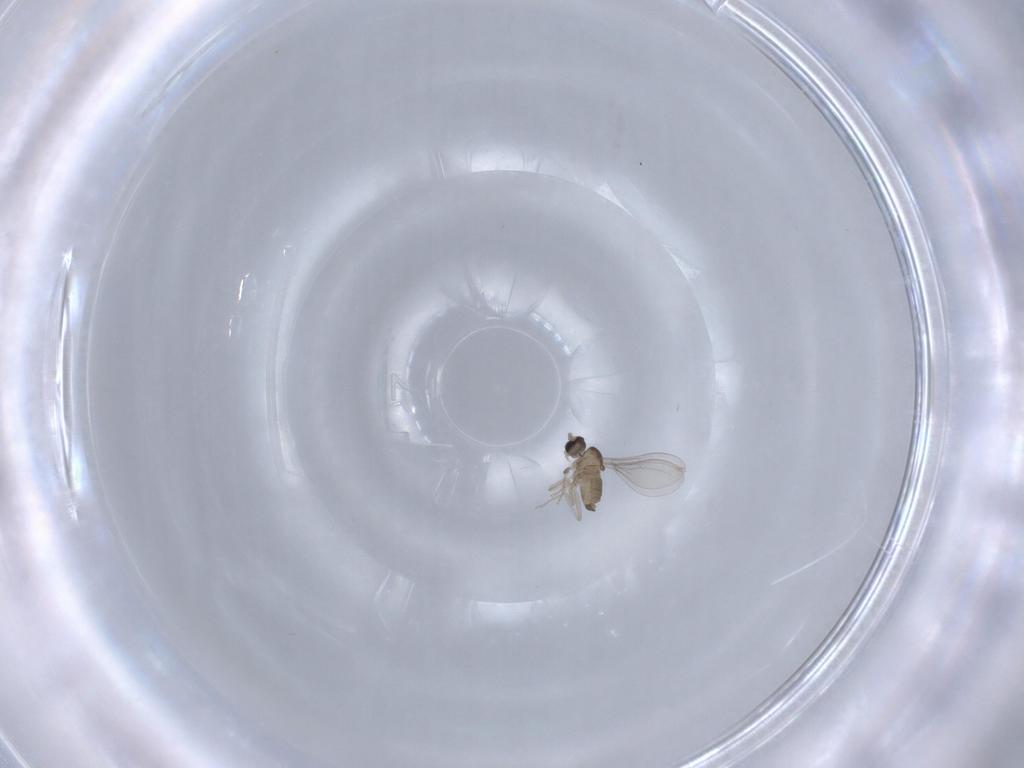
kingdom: Animalia
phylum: Arthropoda
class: Insecta
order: Diptera
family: Cecidomyiidae
